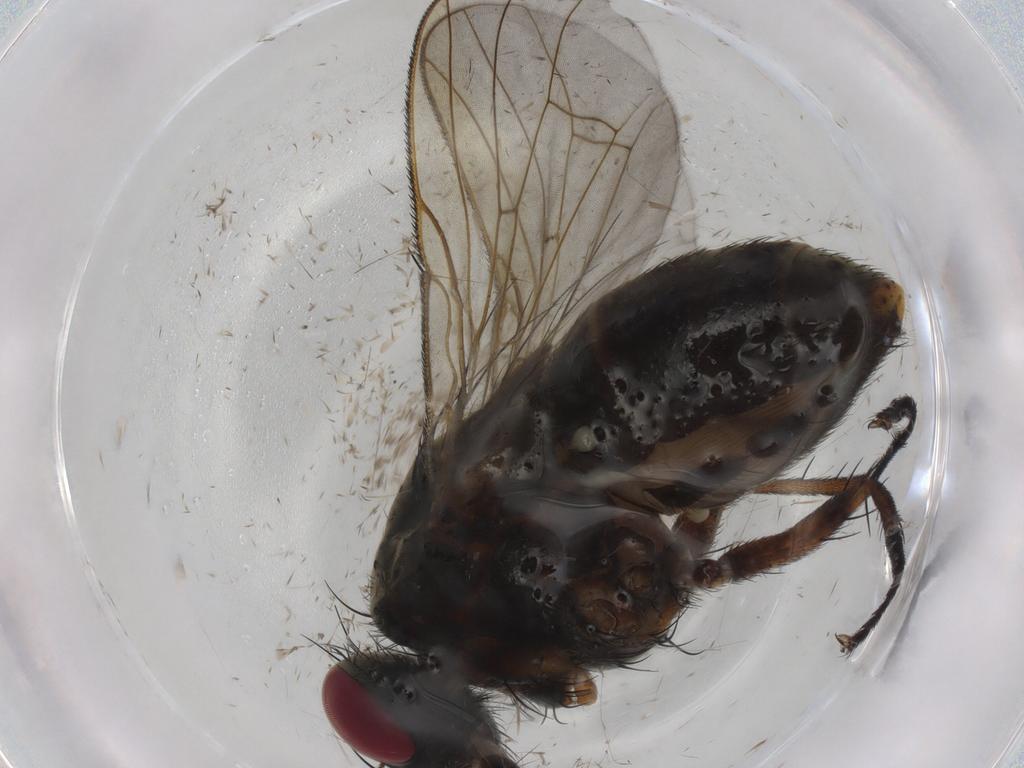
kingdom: Animalia
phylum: Arthropoda
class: Insecta
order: Diptera
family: Muscidae
